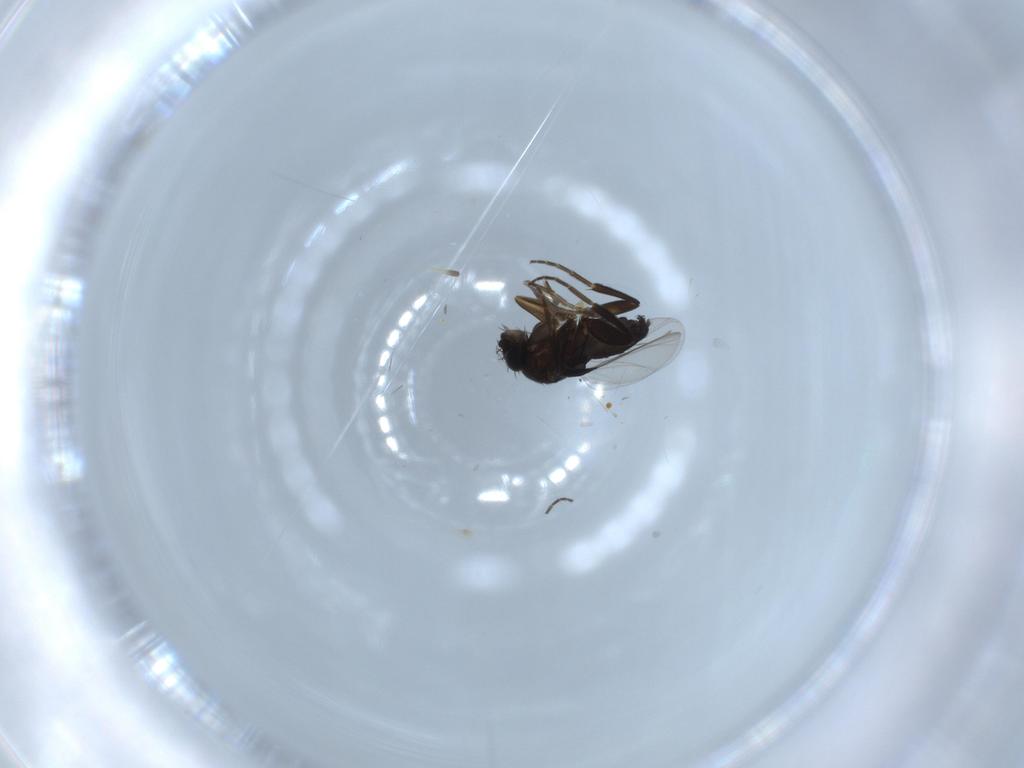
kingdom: Animalia
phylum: Arthropoda
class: Insecta
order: Diptera
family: Phoridae
